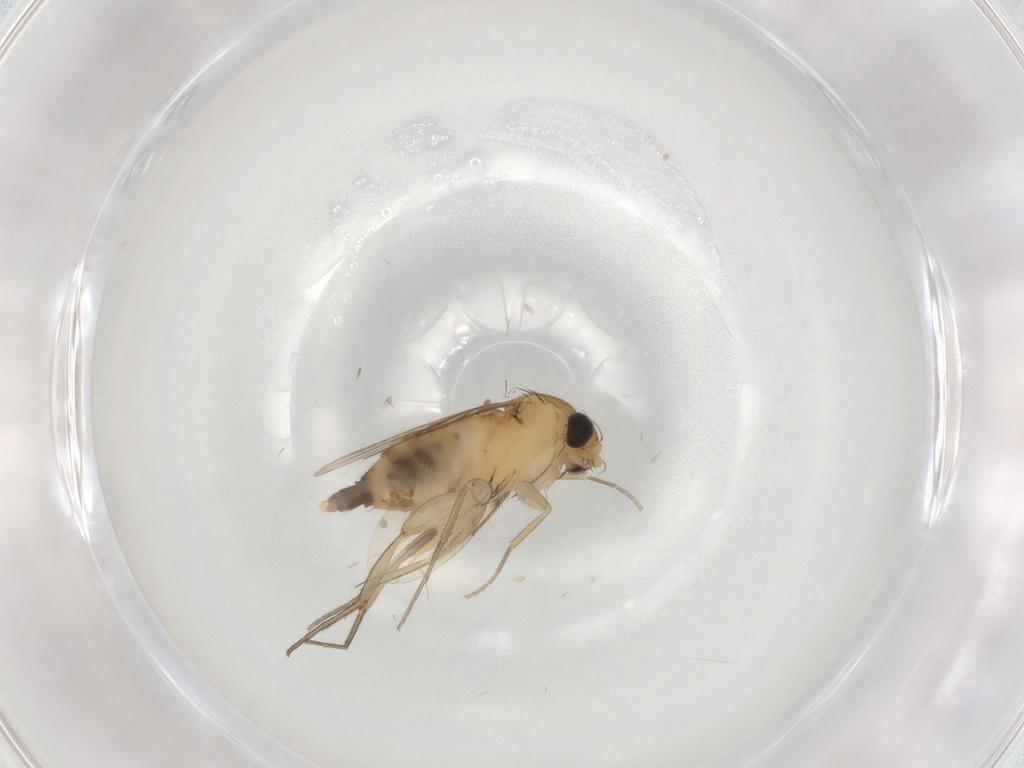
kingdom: Animalia
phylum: Arthropoda
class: Insecta
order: Diptera
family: Phoridae
